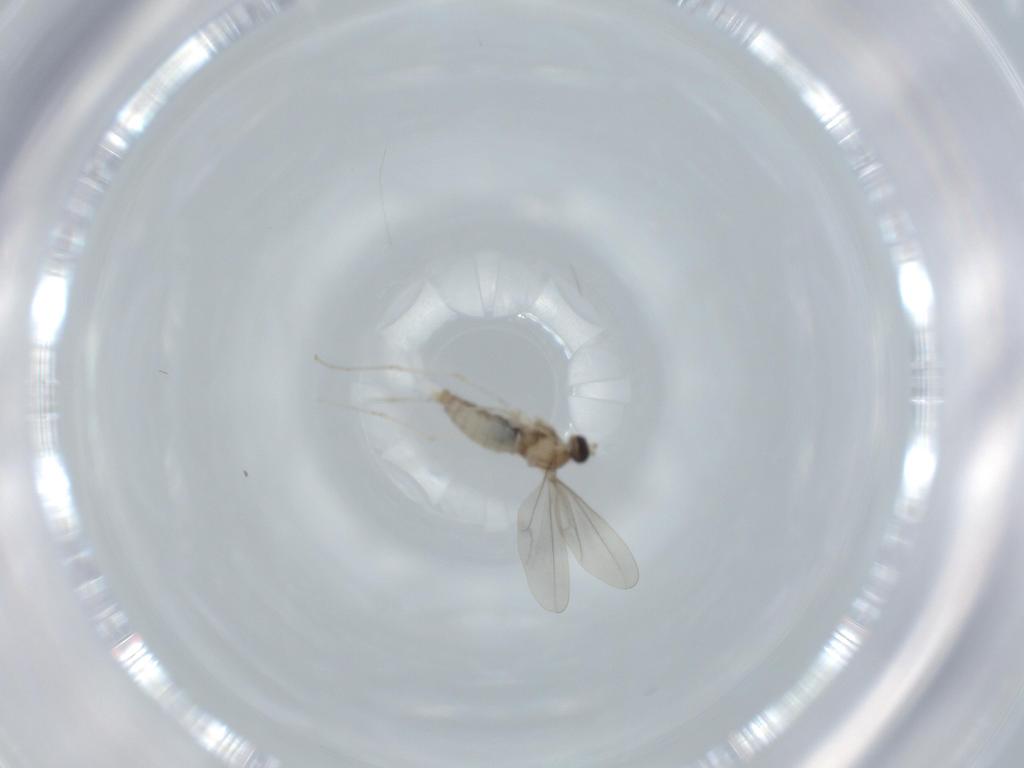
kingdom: Animalia
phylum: Arthropoda
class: Insecta
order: Diptera
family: Cecidomyiidae
